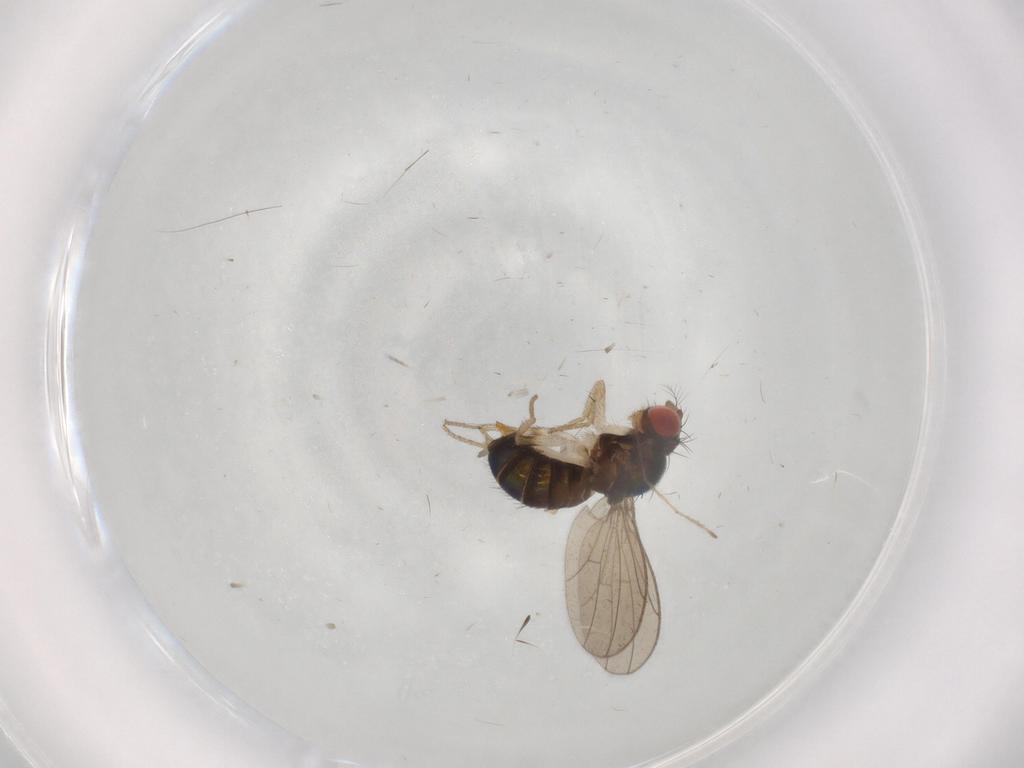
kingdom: Animalia
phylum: Arthropoda
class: Insecta
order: Diptera
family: Drosophilidae
